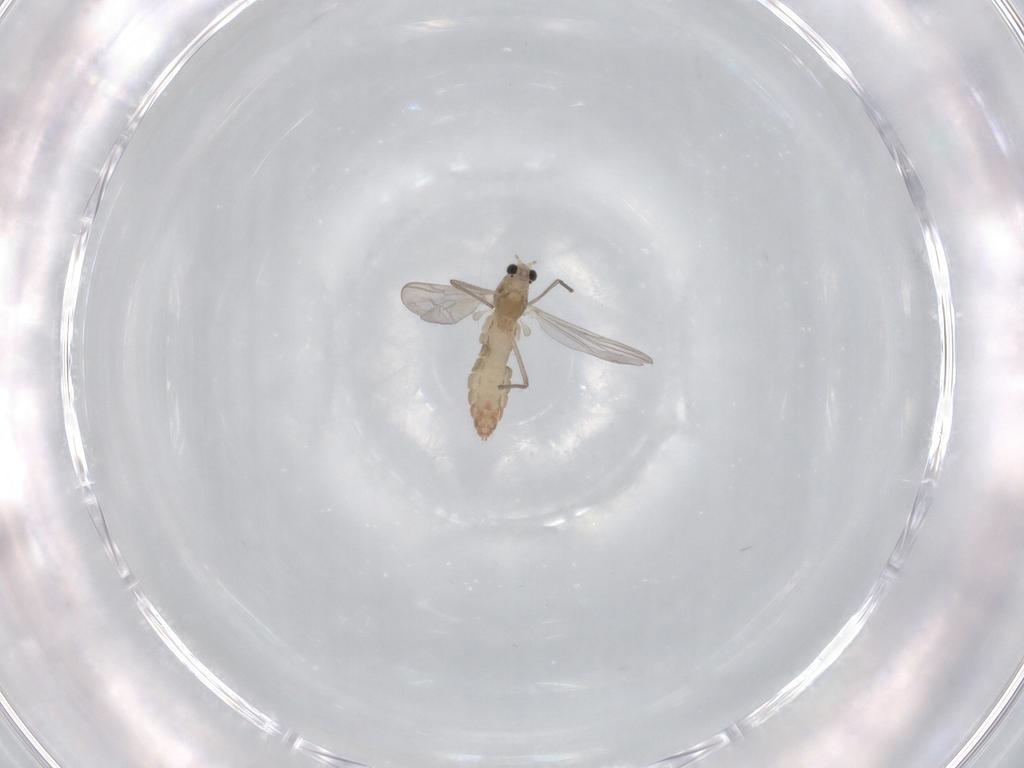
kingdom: Animalia
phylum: Arthropoda
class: Insecta
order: Diptera
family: Chironomidae
